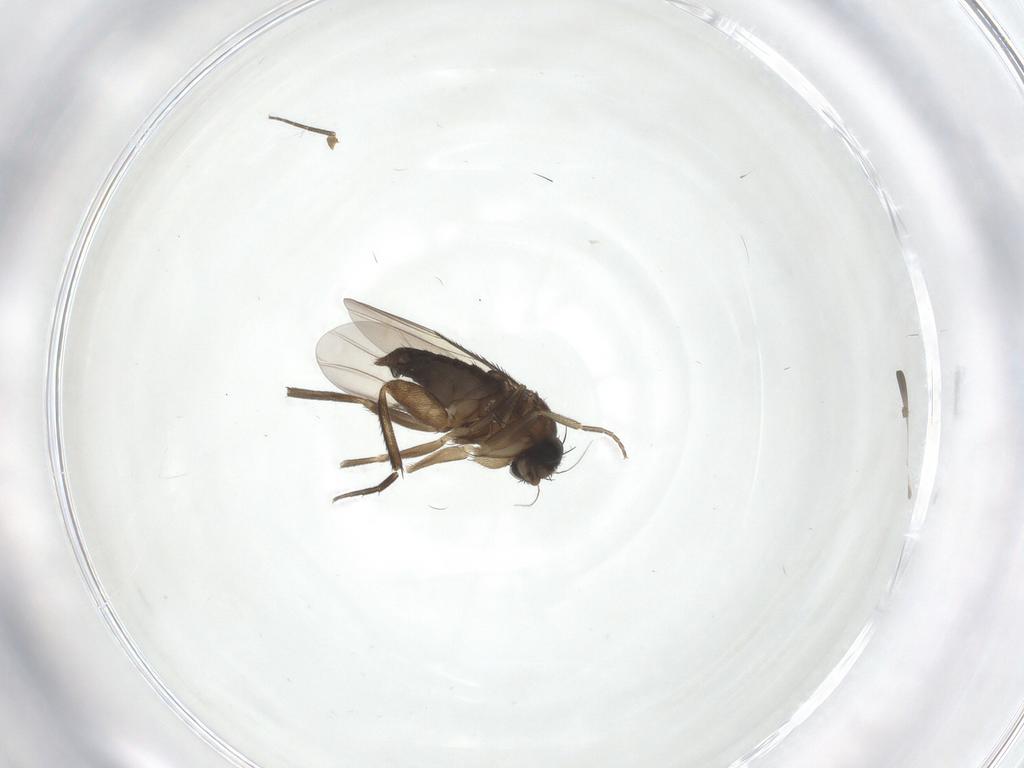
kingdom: Animalia
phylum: Arthropoda
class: Insecta
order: Diptera
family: Phoridae
